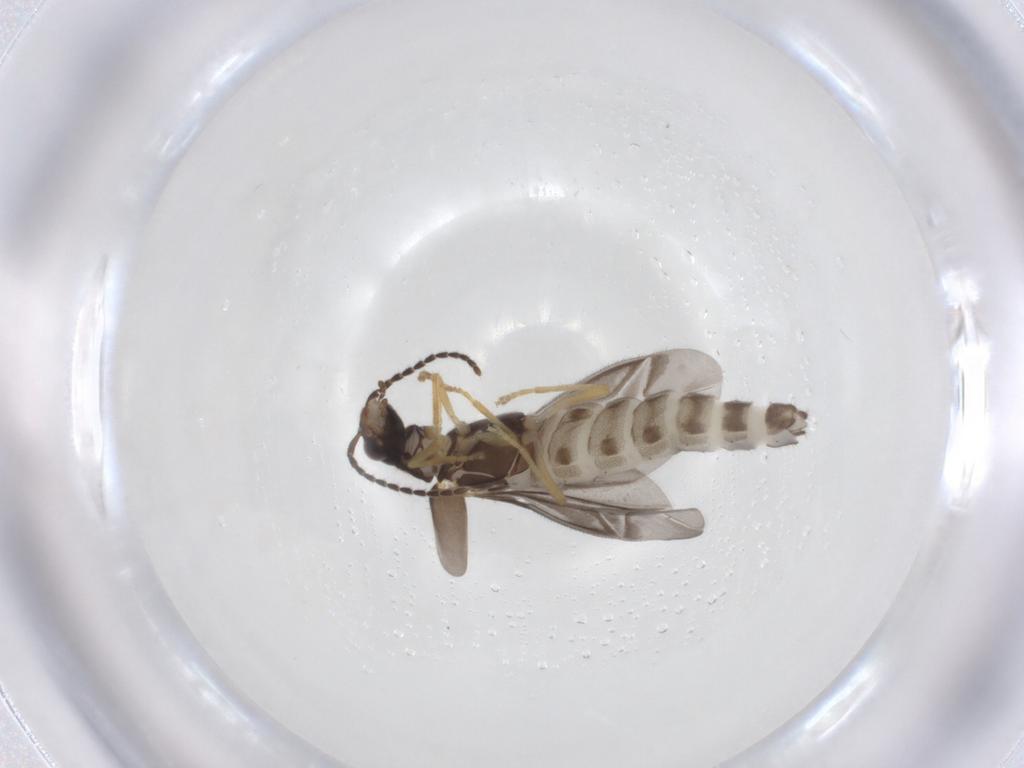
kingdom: Animalia
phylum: Arthropoda
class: Insecta
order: Coleoptera
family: Cantharidae
